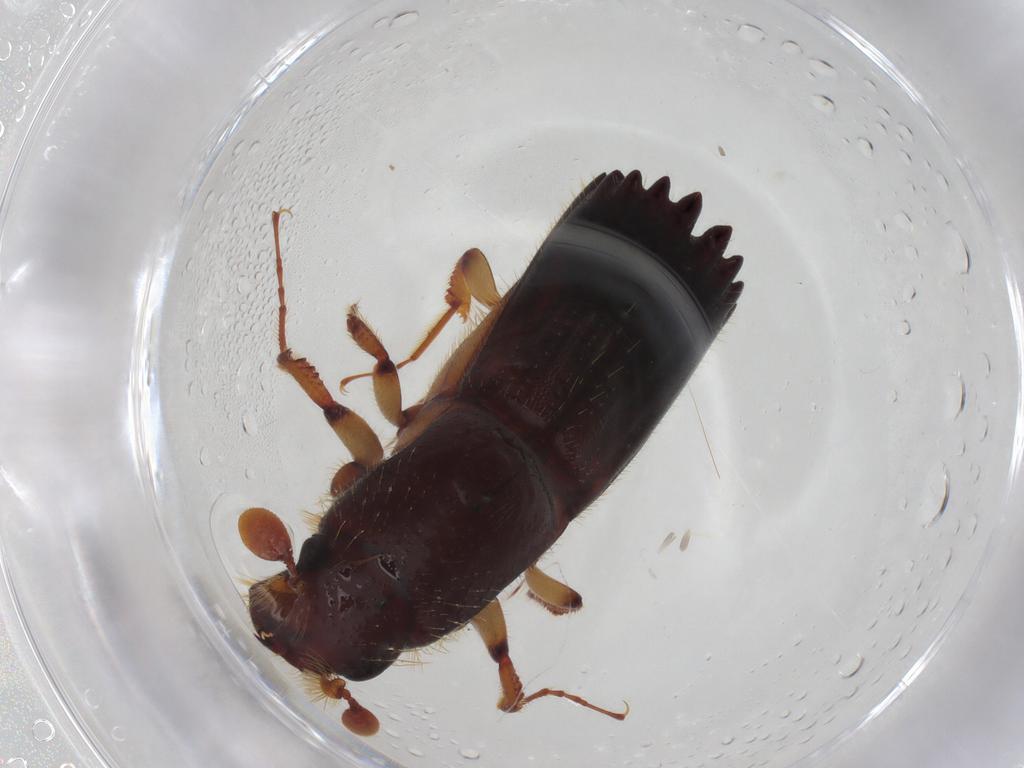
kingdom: Animalia
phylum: Arthropoda
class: Insecta
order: Coleoptera
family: Curculionidae
